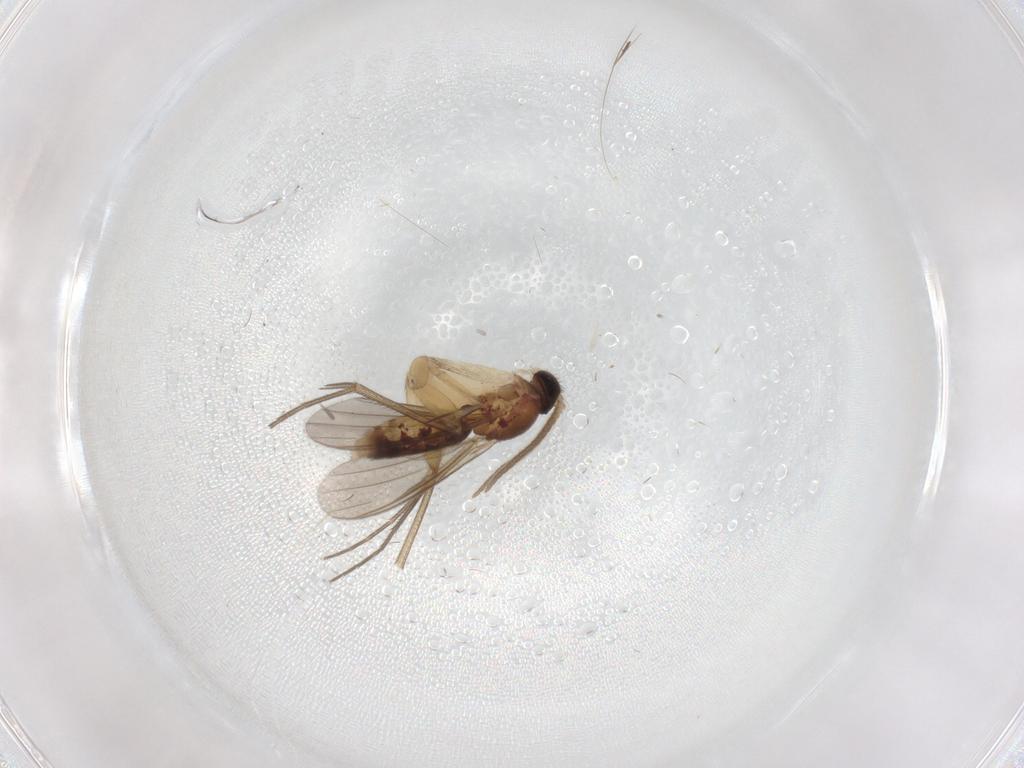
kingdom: Animalia
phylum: Arthropoda
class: Insecta
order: Diptera
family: Mycetophilidae
